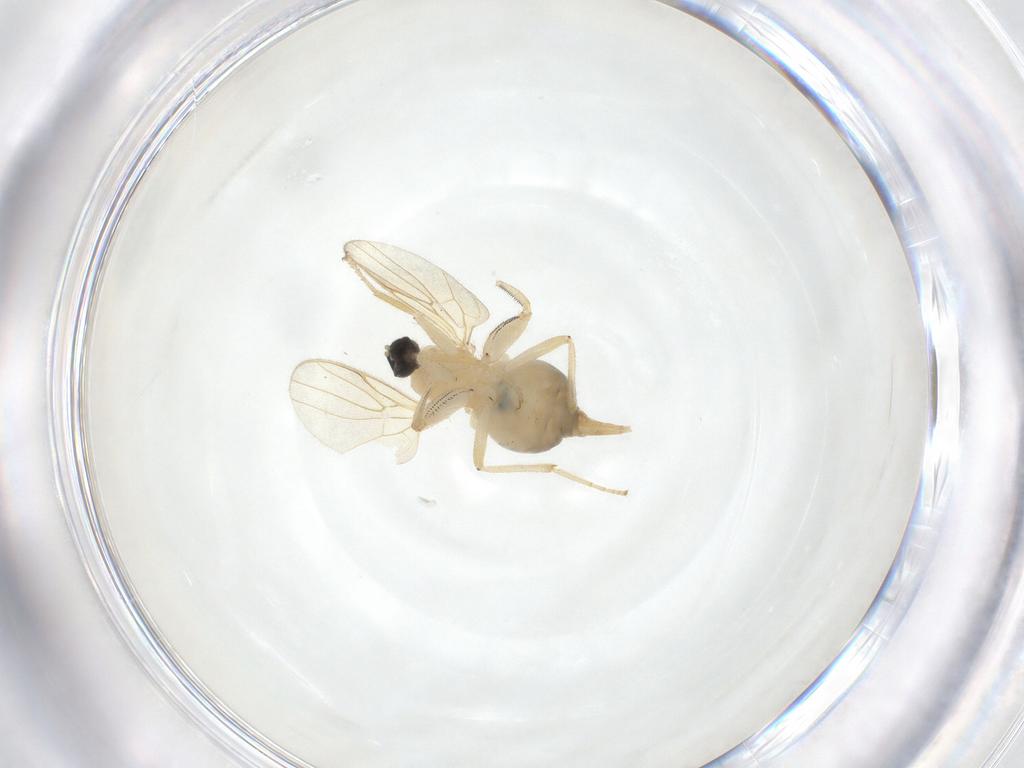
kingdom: Animalia
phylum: Arthropoda
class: Insecta
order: Diptera
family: Sciaridae
